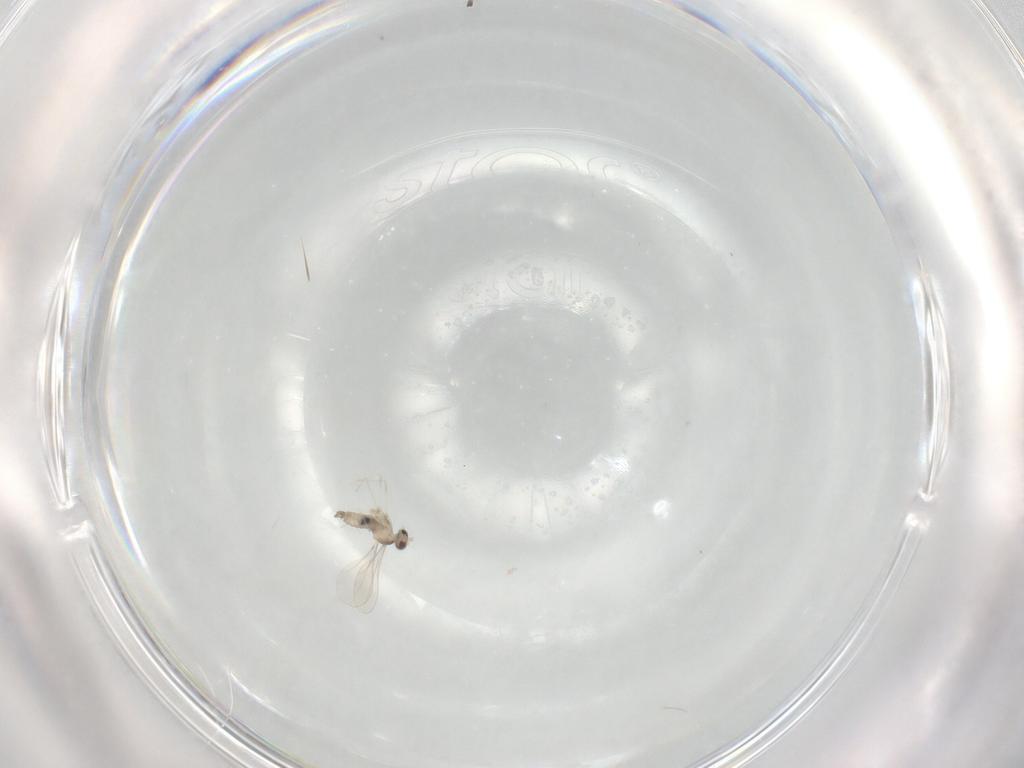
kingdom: Animalia
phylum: Arthropoda
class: Insecta
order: Diptera
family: Cecidomyiidae
